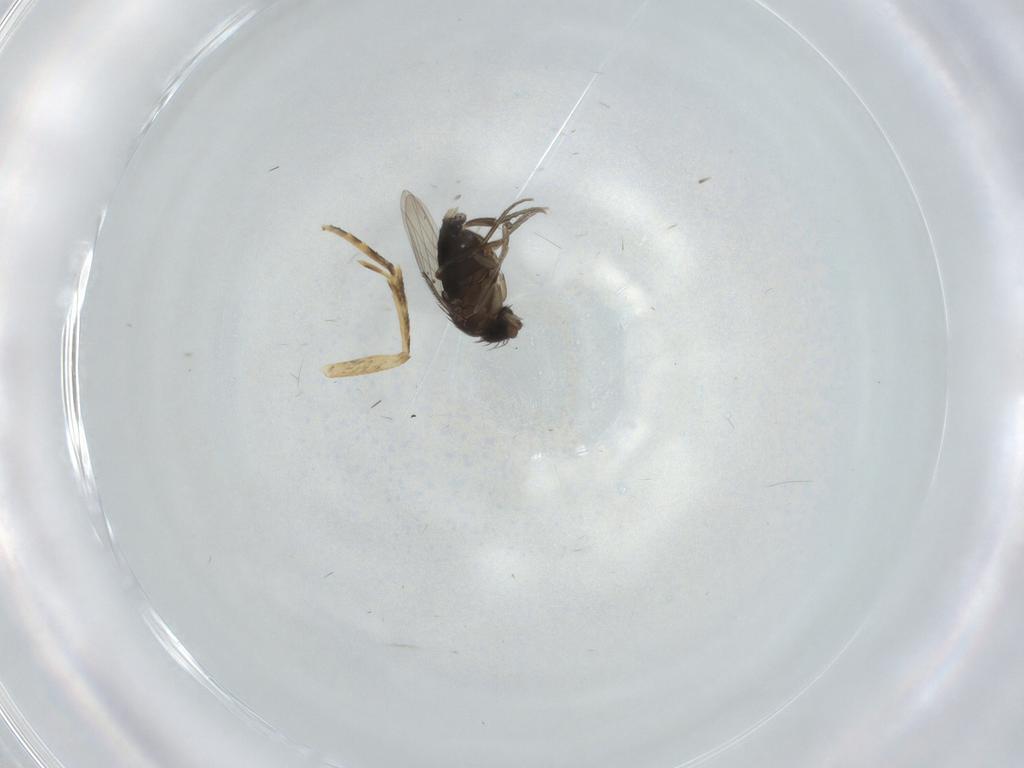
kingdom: Animalia
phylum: Arthropoda
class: Insecta
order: Diptera
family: Phoridae
